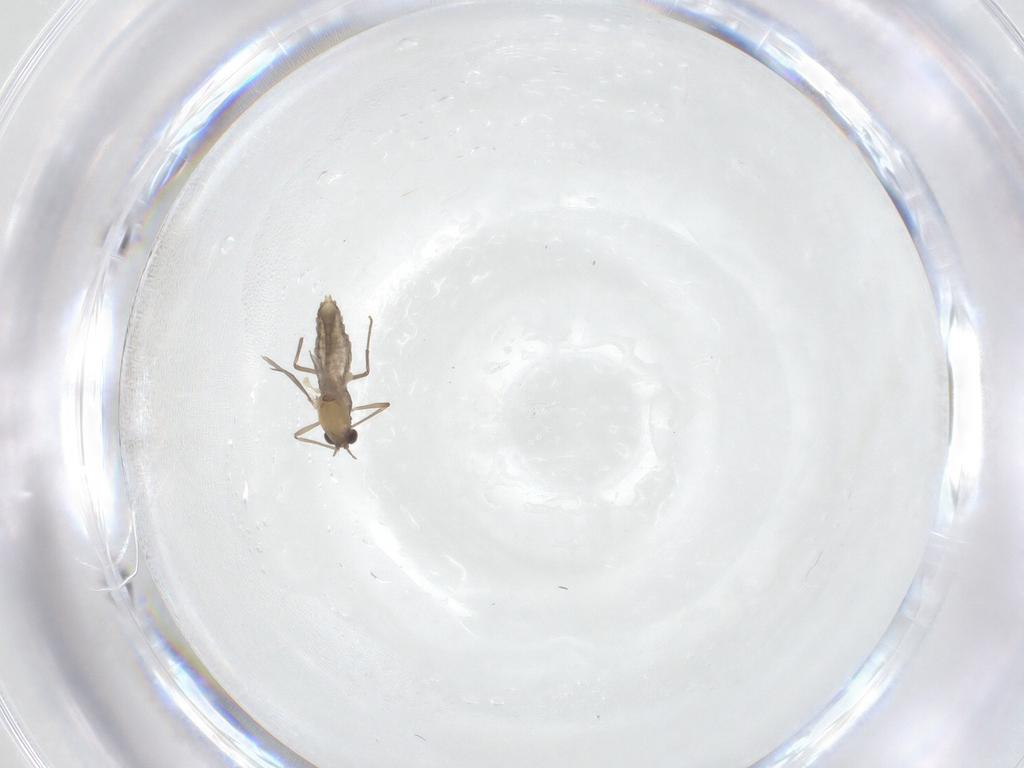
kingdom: Animalia
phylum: Arthropoda
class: Insecta
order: Diptera
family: Chironomidae
